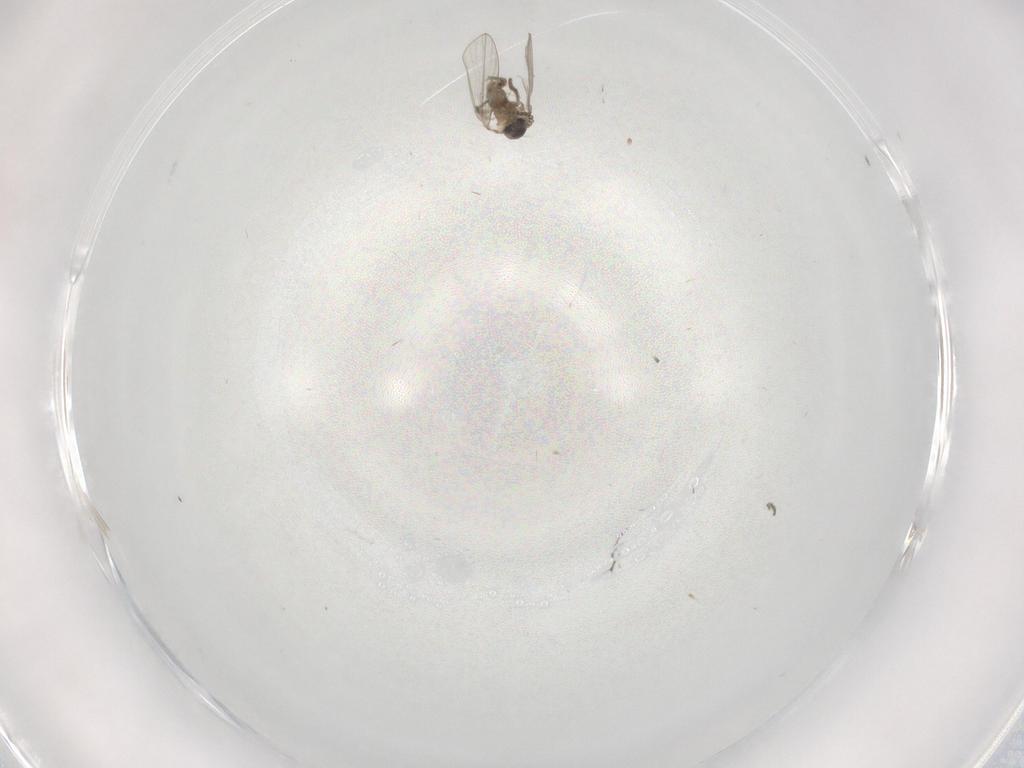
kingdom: Animalia
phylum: Arthropoda
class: Insecta
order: Diptera
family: Psychodidae
